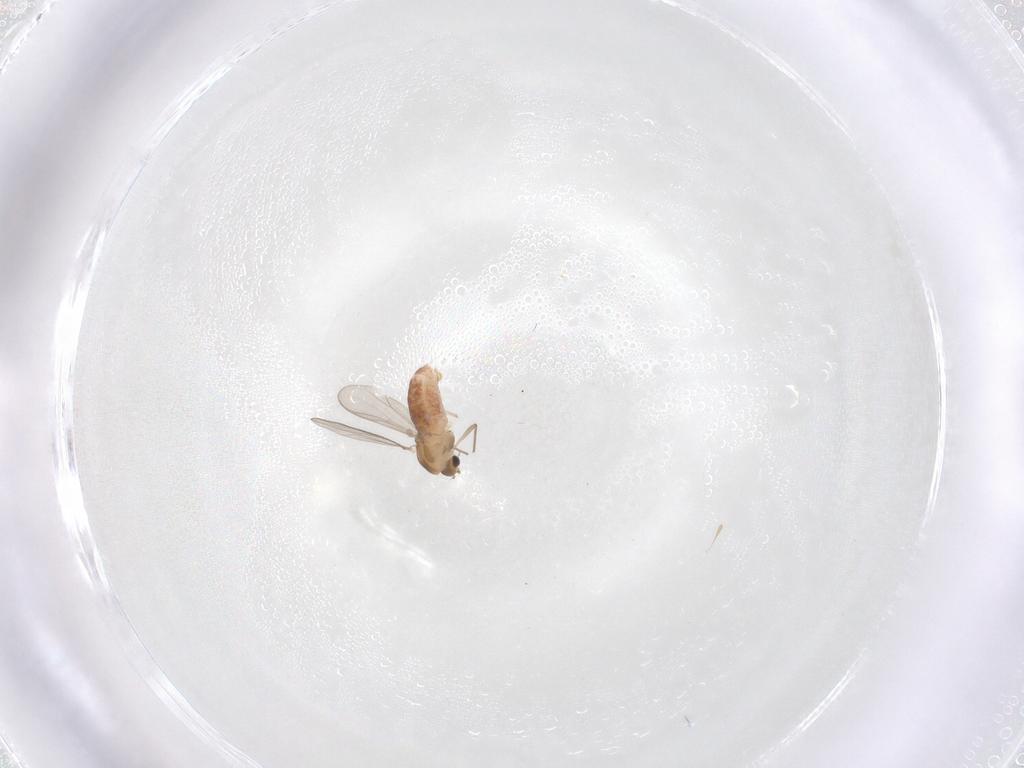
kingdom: Animalia
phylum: Arthropoda
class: Insecta
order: Diptera
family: Chironomidae
